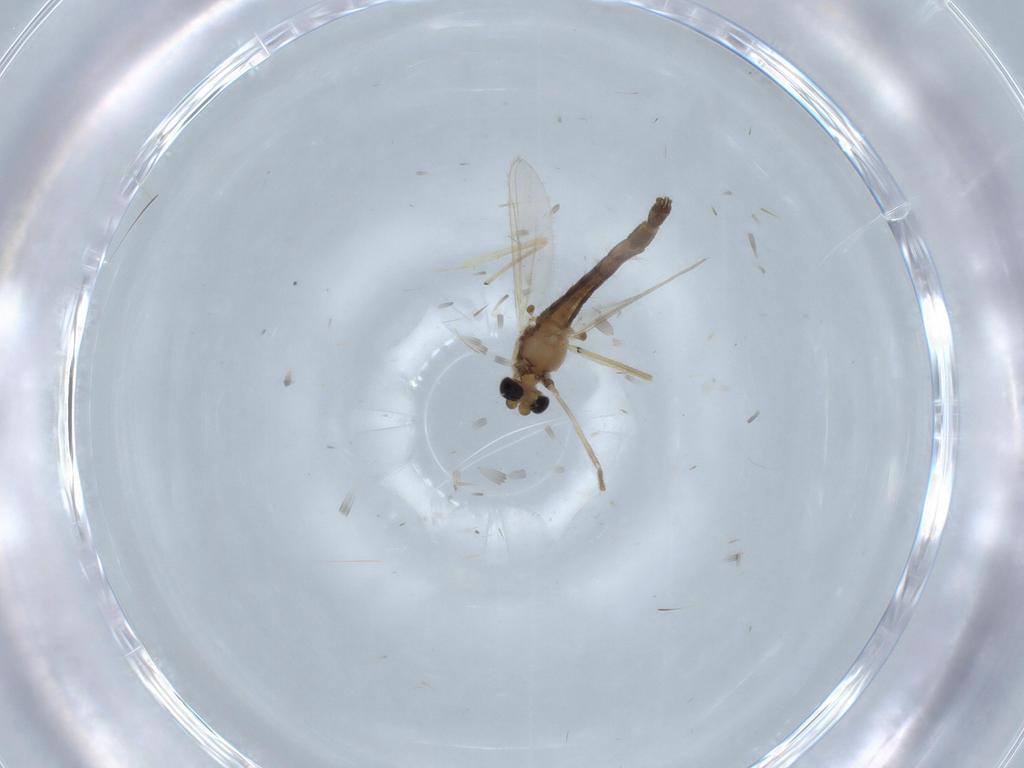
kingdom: Animalia
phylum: Arthropoda
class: Insecta
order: Diptera
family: Chironomidae
